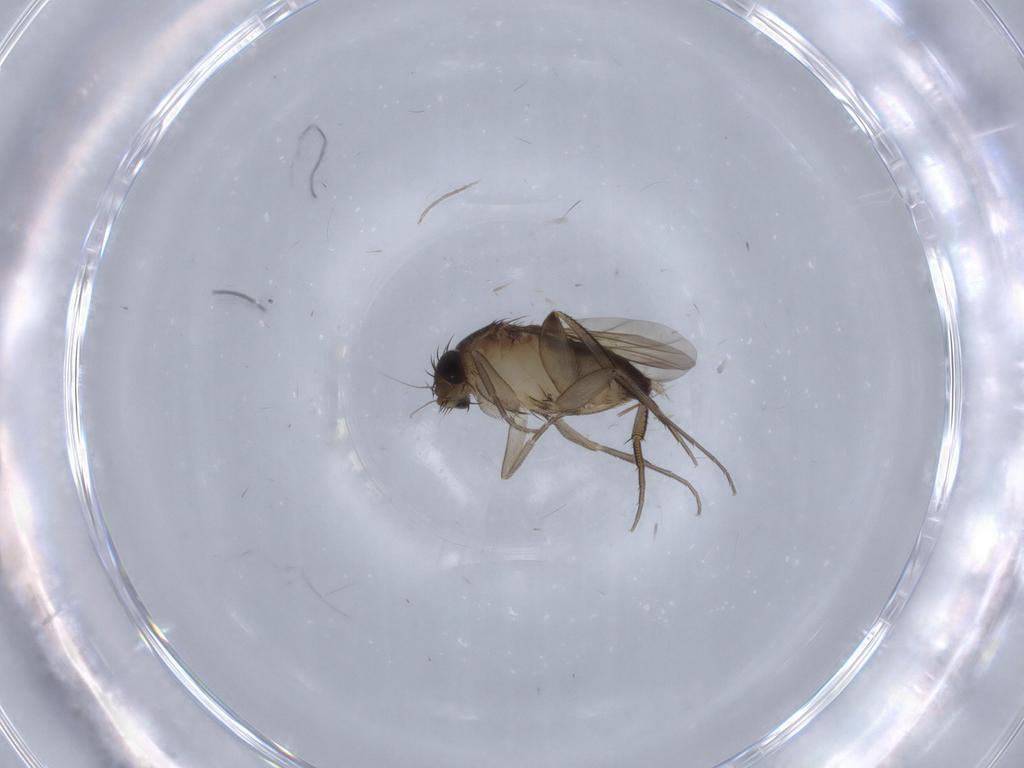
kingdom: Animalia
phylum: Arthropoda
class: Insecta
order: Diptera
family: Phoridae
